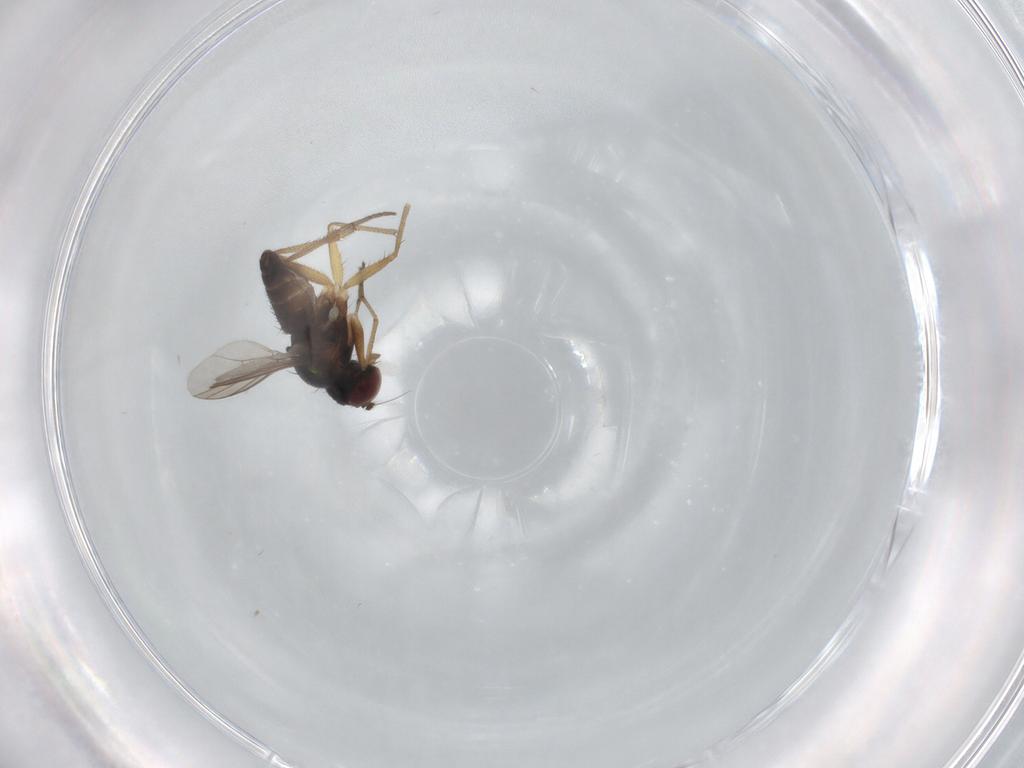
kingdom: Animalia
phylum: Arthropoda
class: Insecta
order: Diptera
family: Dolichopodidae
